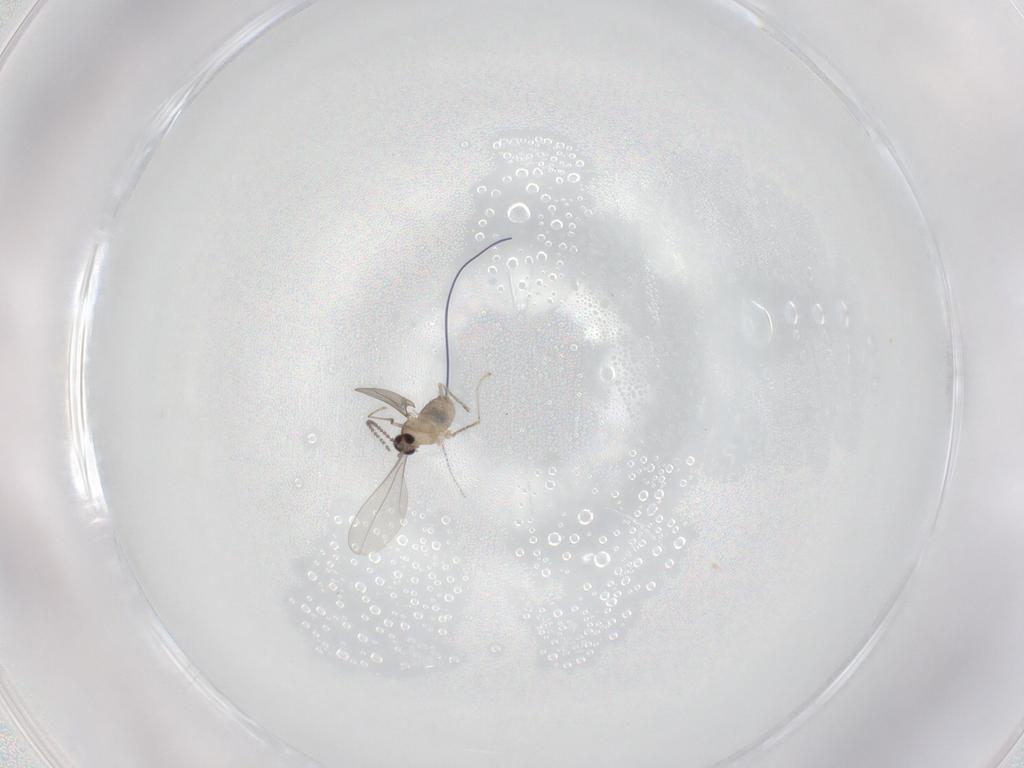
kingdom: Animalia
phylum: Arthropoda
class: Insecta
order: Diptera
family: Cecidomyiidae
